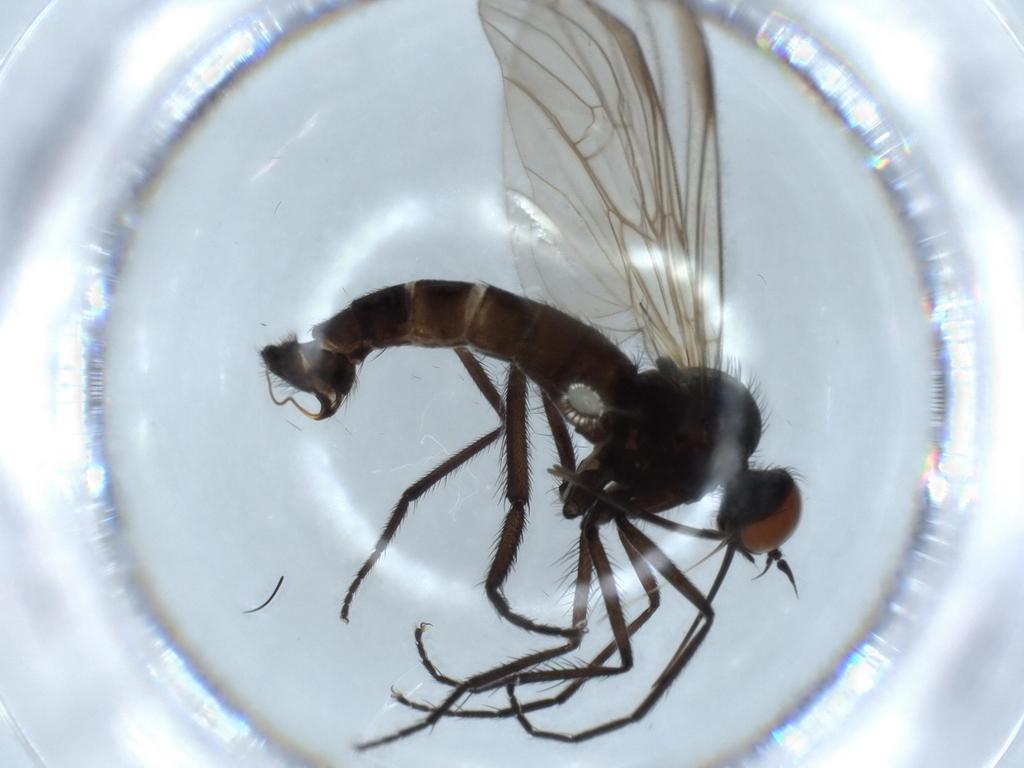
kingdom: Animalia
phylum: Arthropoda
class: Insecta
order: Diptera
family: Empididae
